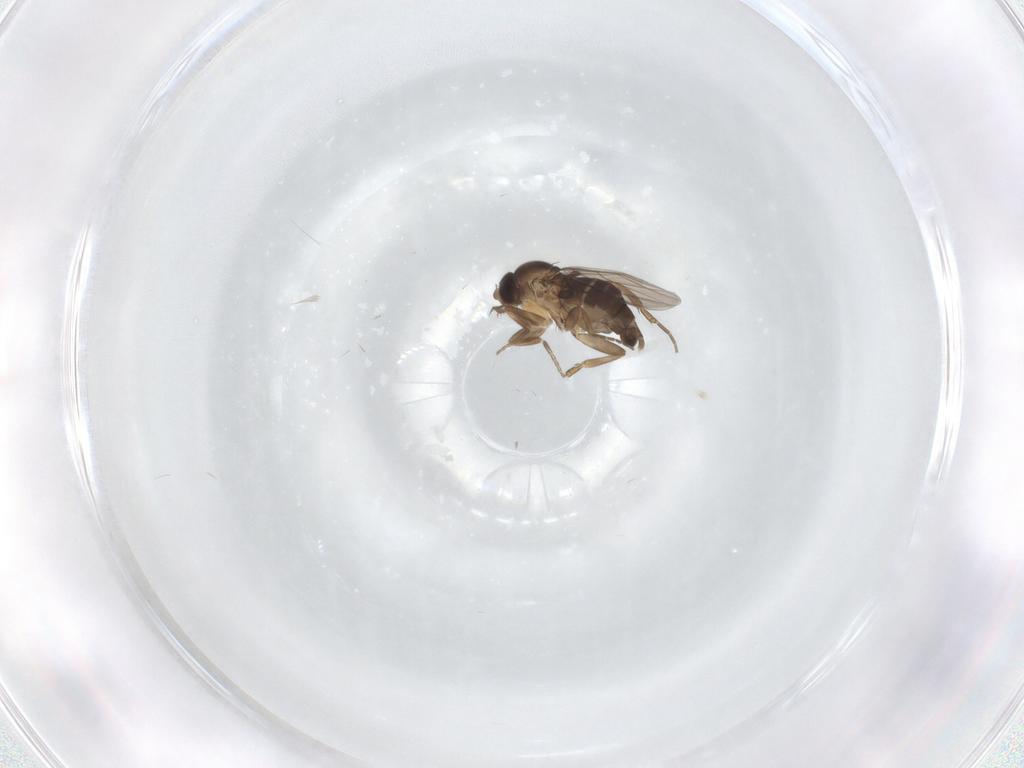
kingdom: Animalia
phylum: Arthropoda
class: Insecta
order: Diptera
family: Phoridae
